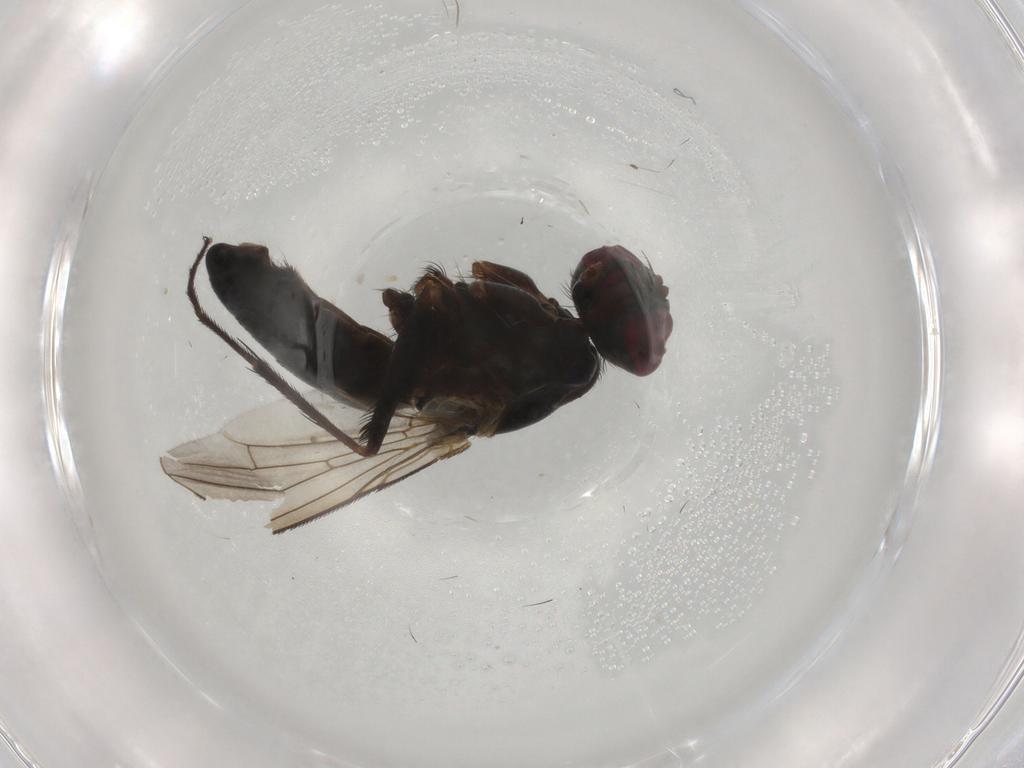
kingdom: Animalia
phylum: Arthropoda
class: Insecta
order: Diptera
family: Muscidae
